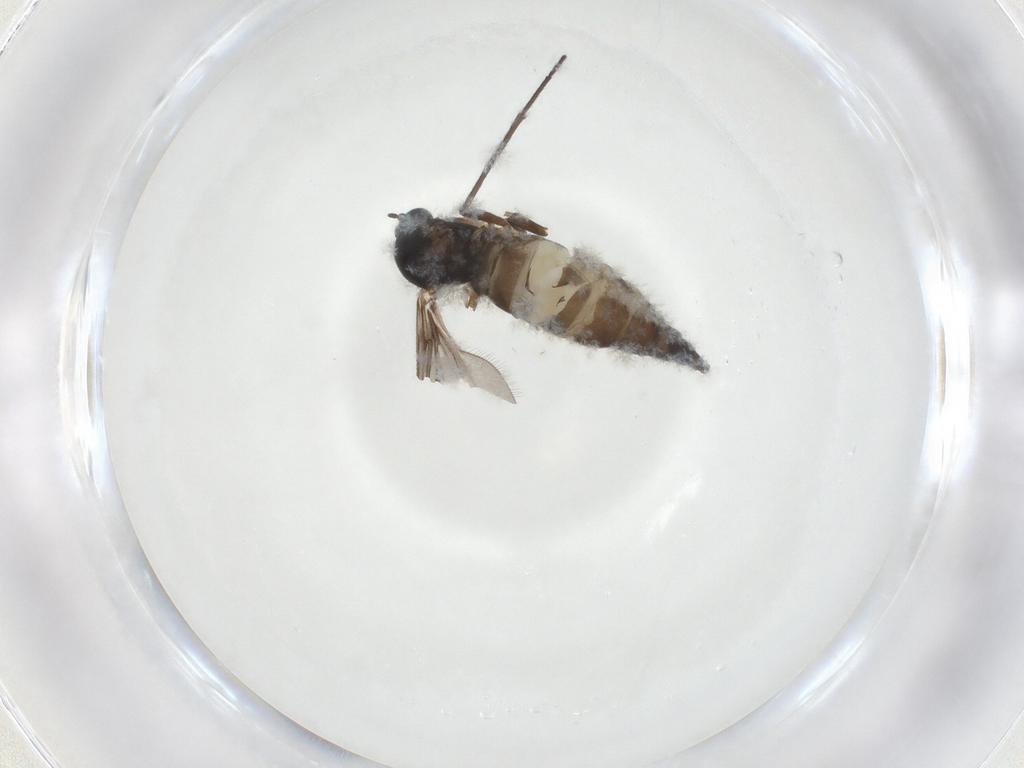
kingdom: Animalia
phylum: Arthropoda
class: Insecta
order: Diptera
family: Sciaridae
